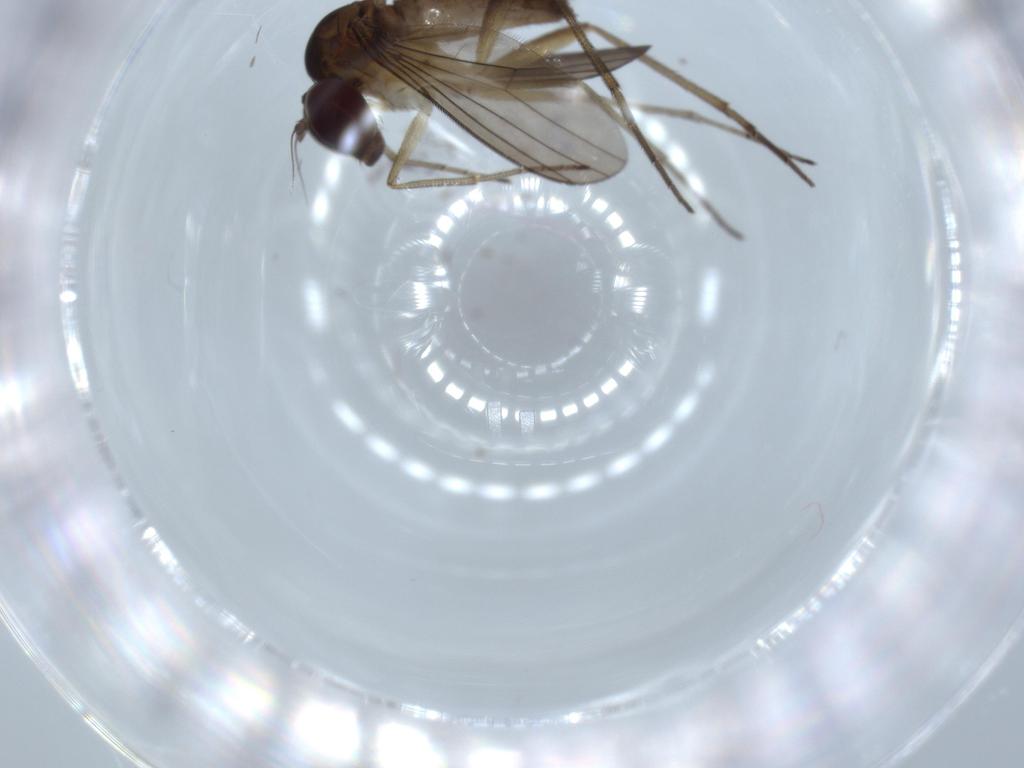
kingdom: Animalia
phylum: Arthropoda
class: Insecta
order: Diptera
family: Dolichopodidae
